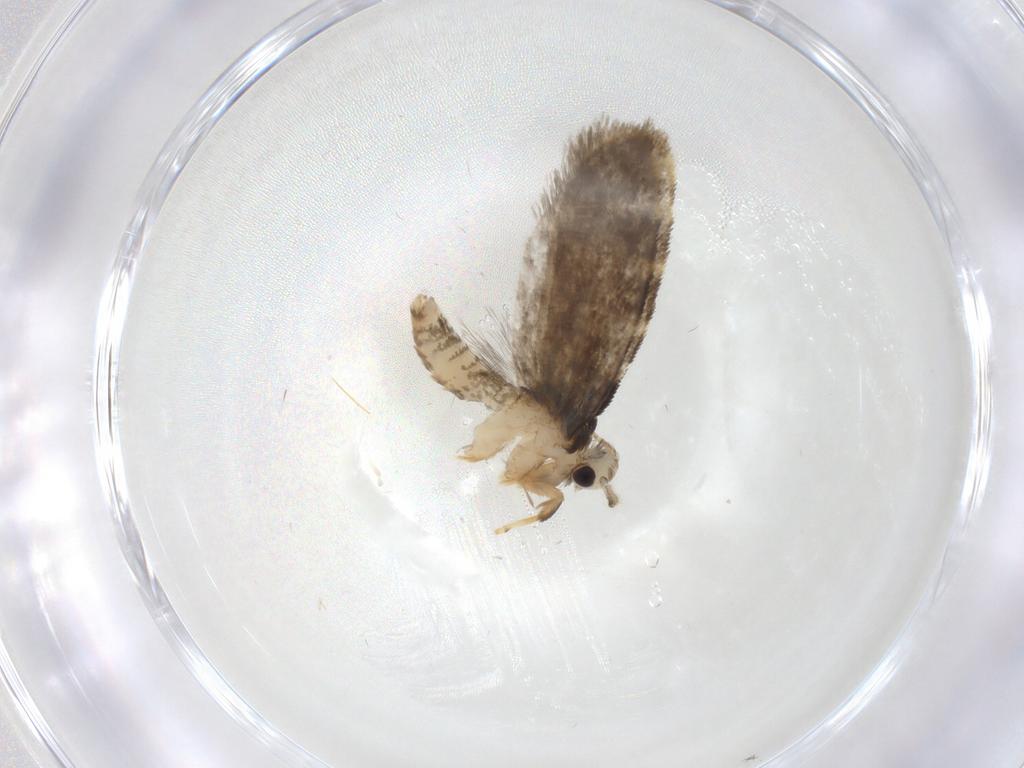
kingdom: Animalia
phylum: Arthropoda
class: Insecta
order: Lepidoptera
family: Psychidae
